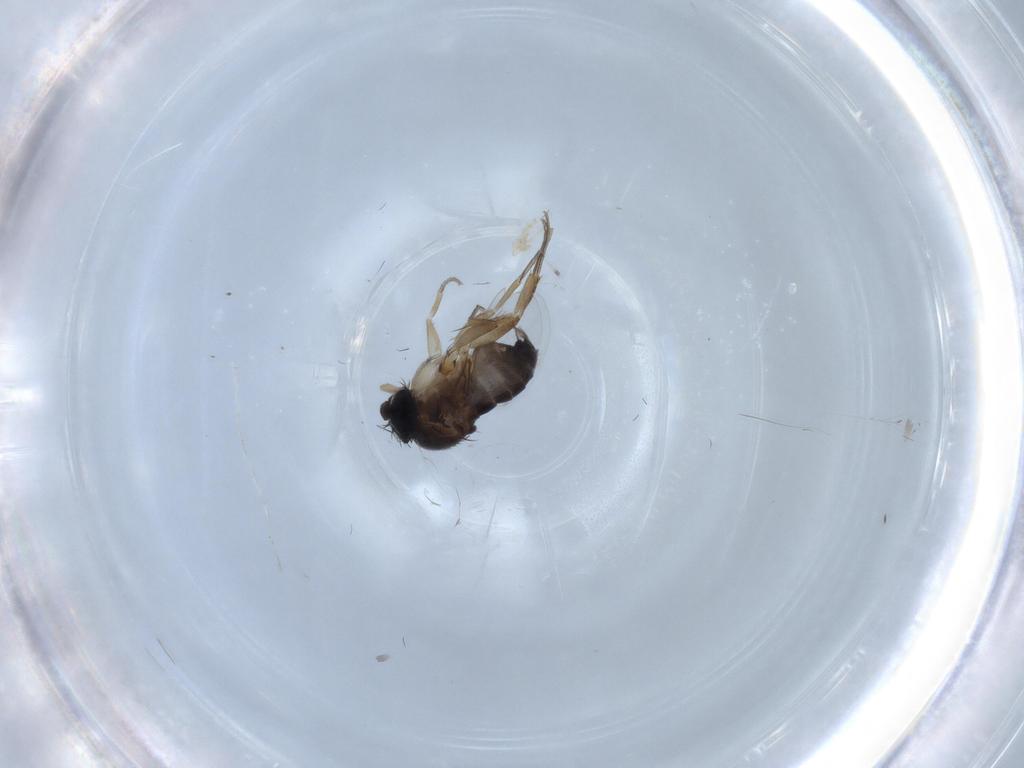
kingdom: Animalia
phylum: Arthropoda
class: Insecta
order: Diptera
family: Phoridae
